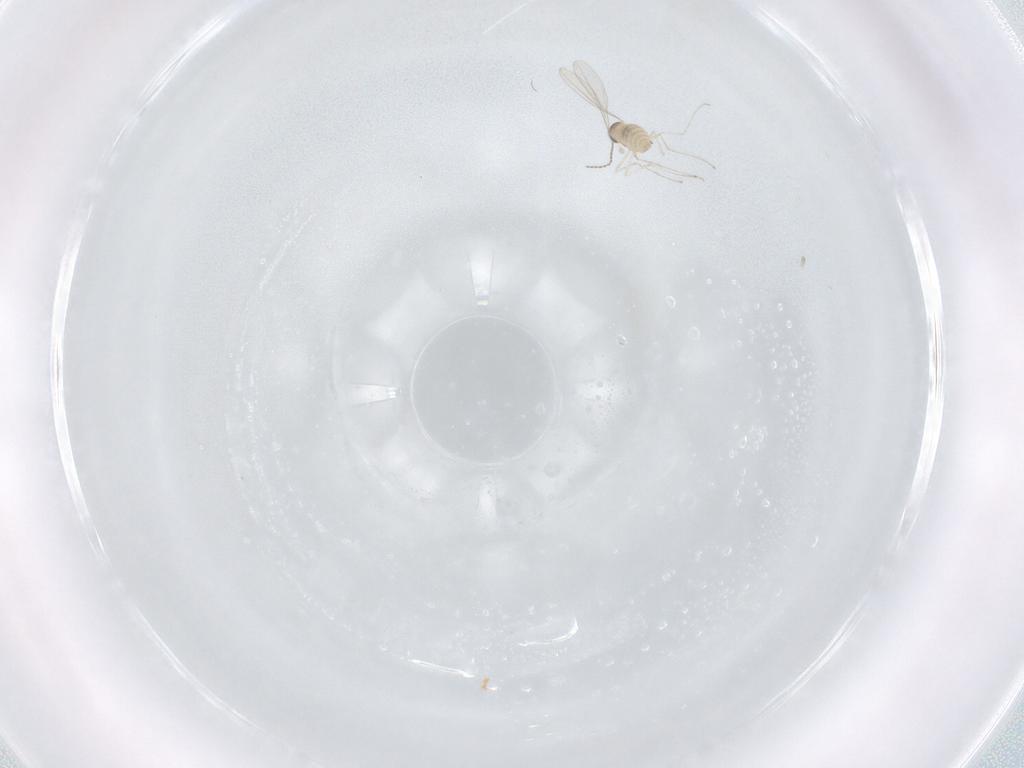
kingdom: Animalia
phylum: Arthropoda
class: Insecta
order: Diptera
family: Cecidomyiidae
